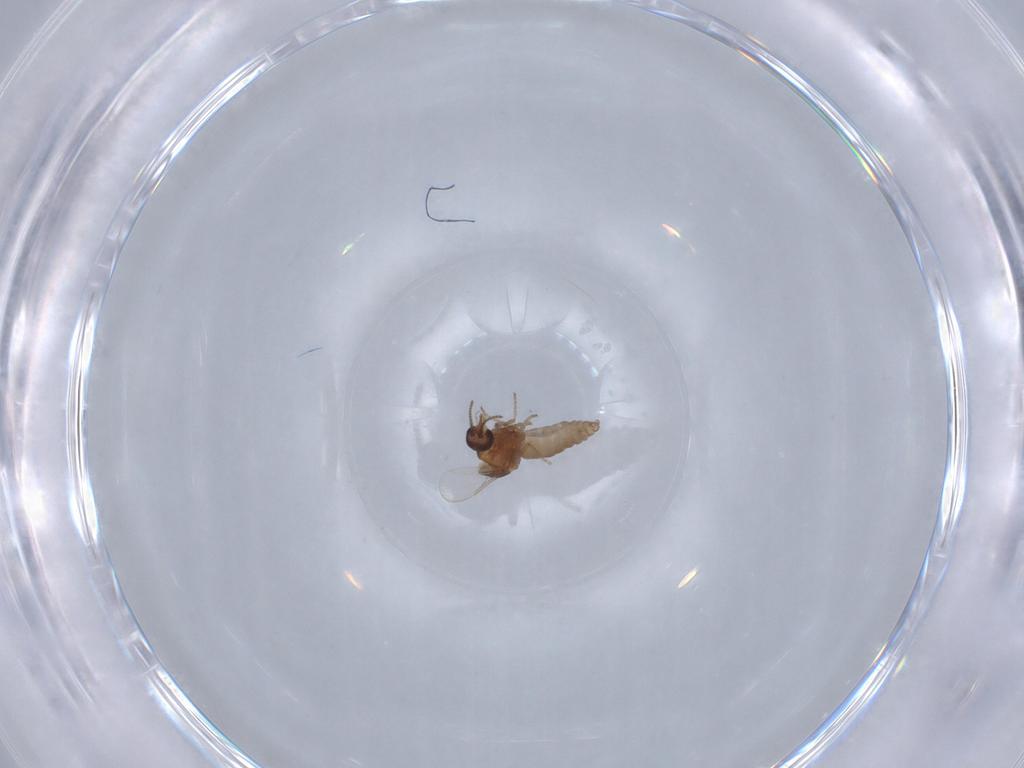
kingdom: Animalia
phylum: Arthropoda
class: Insecta
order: Diptera
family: Ceratopogonidae
